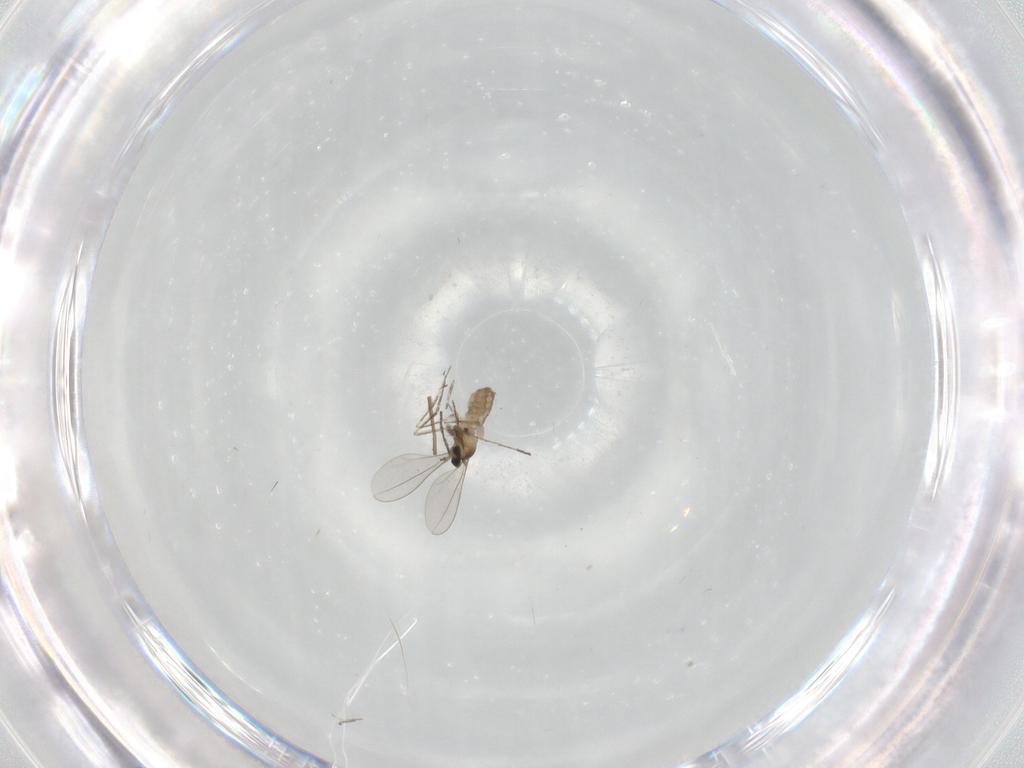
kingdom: Animalia
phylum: Arthropoda
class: Insecta
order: Diptera
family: Cecidomyiidae
